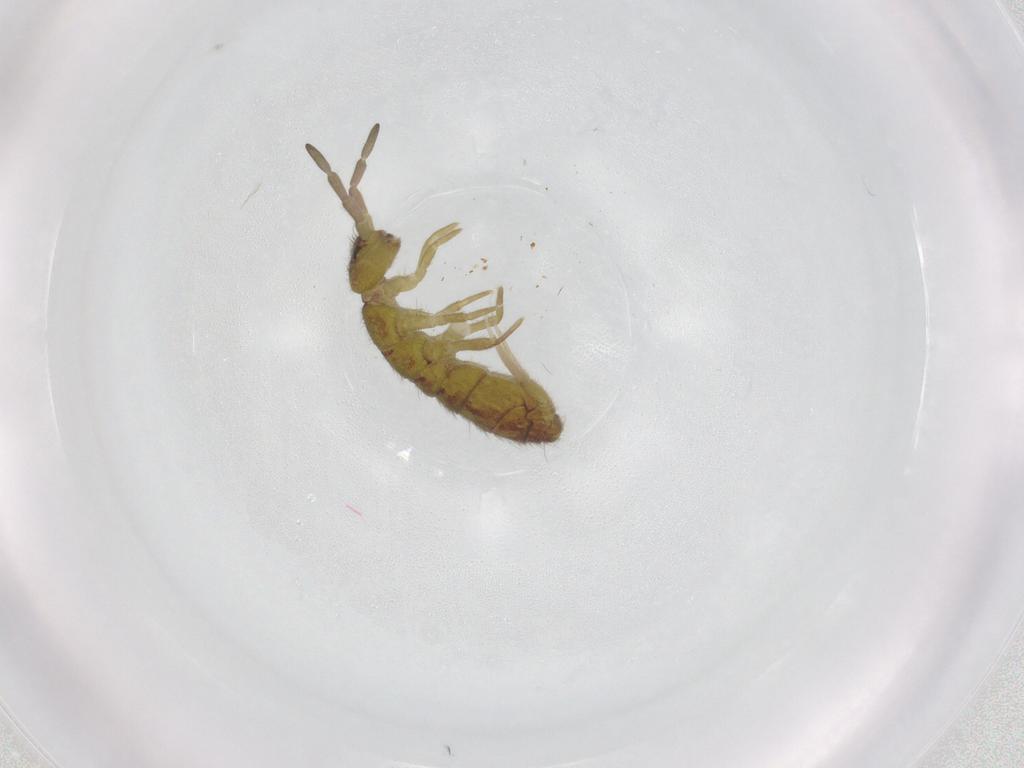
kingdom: Animalia
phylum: Arthropoda
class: Collembola
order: Entomobryomorpha
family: Isotomidae
